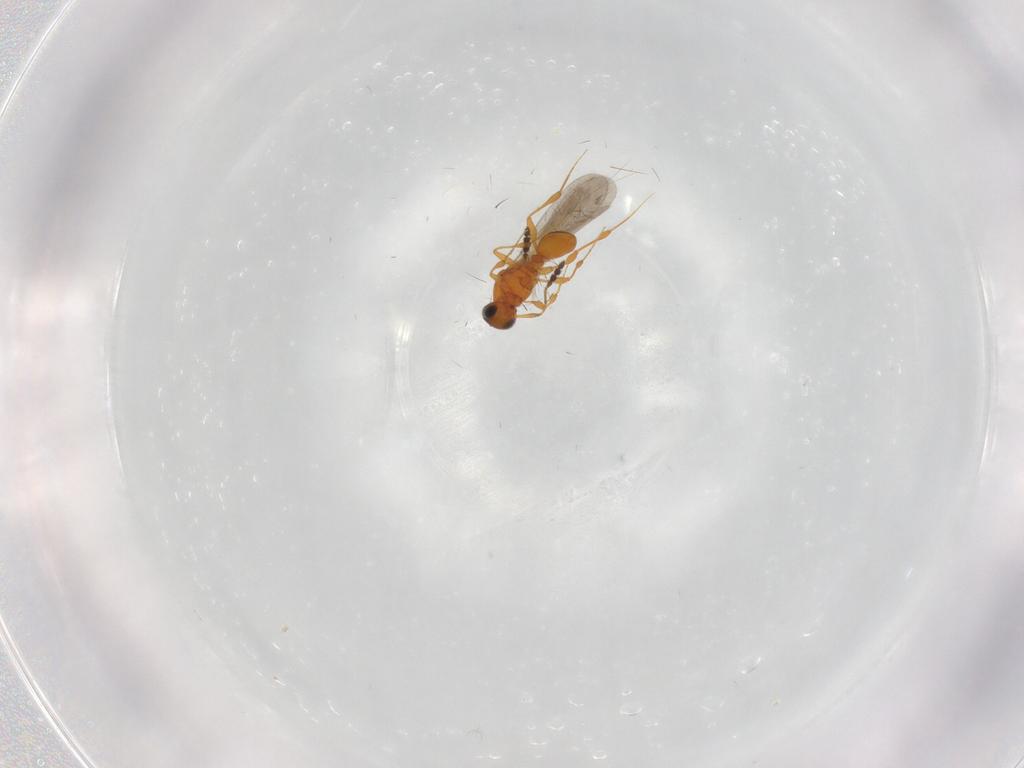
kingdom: Animalia
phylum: Arthropoda
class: Insecta
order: Hymenoptera
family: Platygastridae
